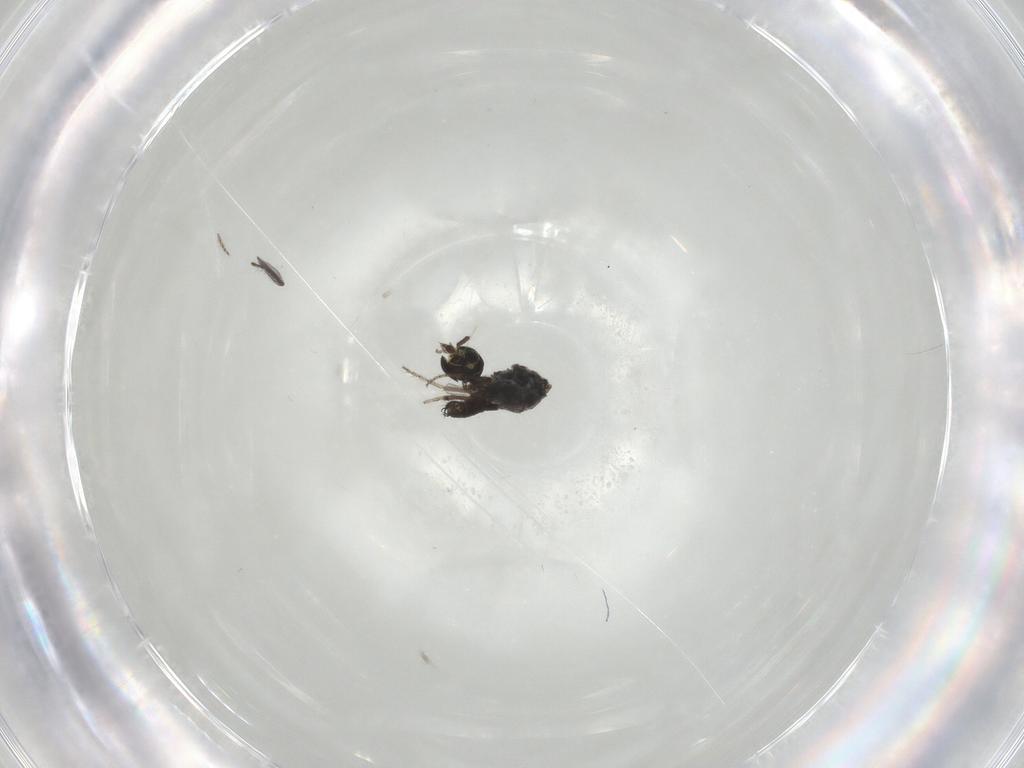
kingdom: Animalia
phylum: Arthropoda
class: Insecta
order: Diptera
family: Ceratopogonidae
